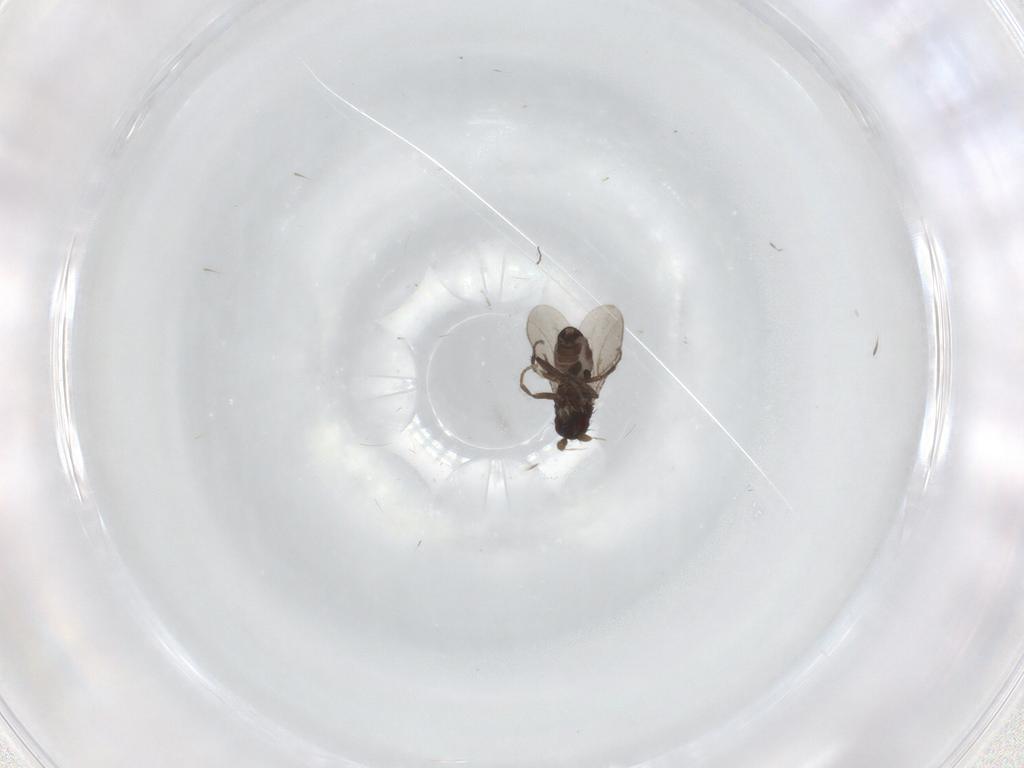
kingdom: Animalia
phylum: Arthropoda
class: Insecta
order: Diptera
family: Sphaeroceridae
